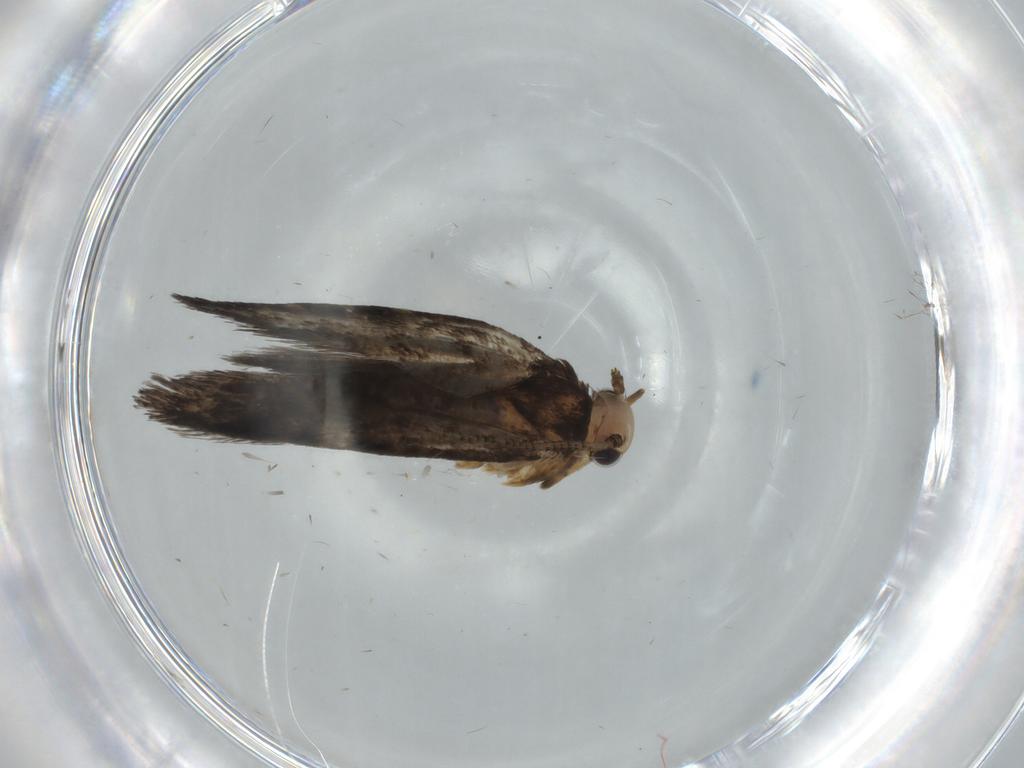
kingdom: Animalia
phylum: Arthropoda
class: Insecta
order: Lepidoptera
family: Tineidae
